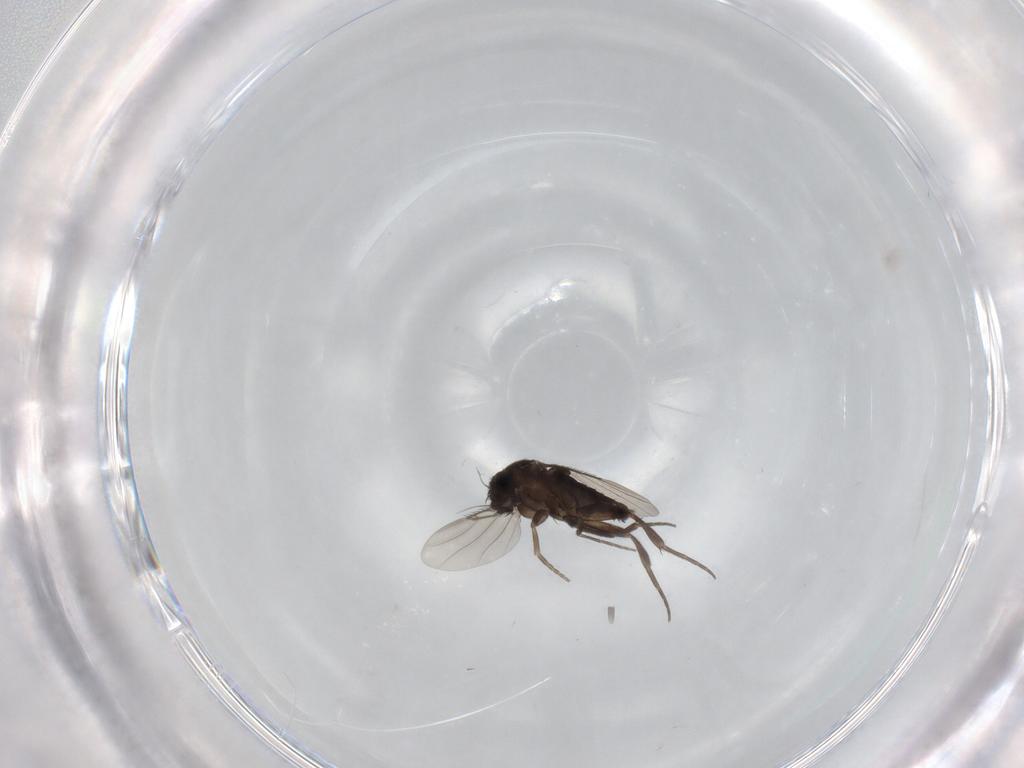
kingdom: Animalia
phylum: Arthropoda
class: Insecta
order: Diptera
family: Phoridae
